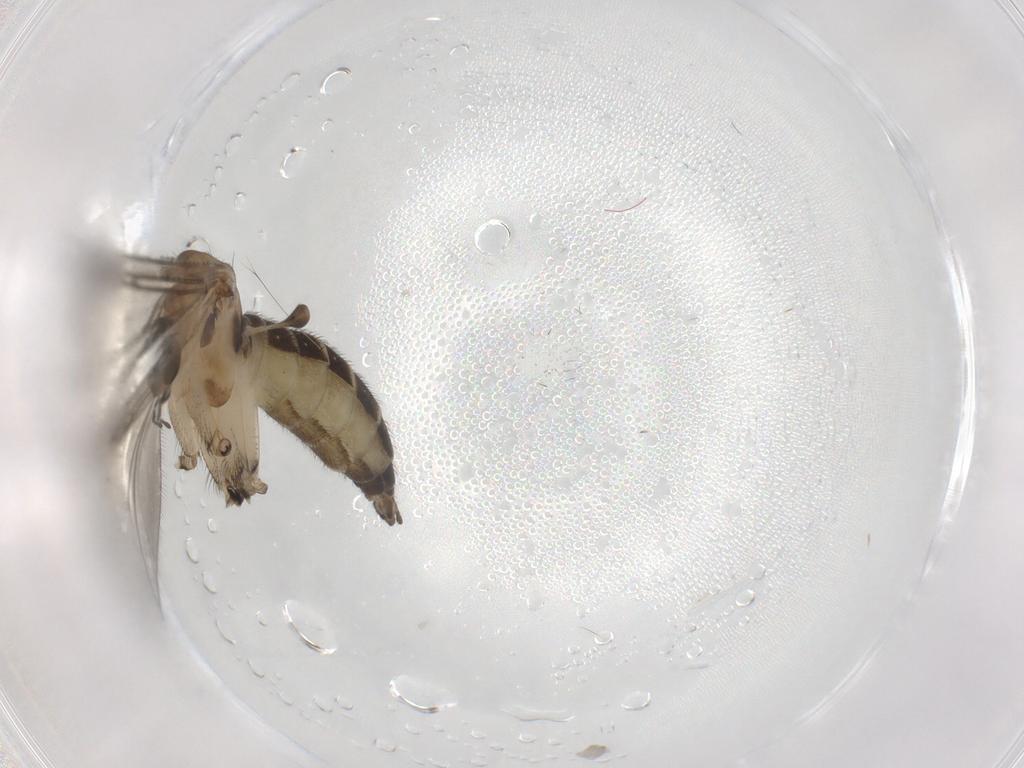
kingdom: Animalia
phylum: Arthropoda
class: Insecta
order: Diptera
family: Sciaridae
